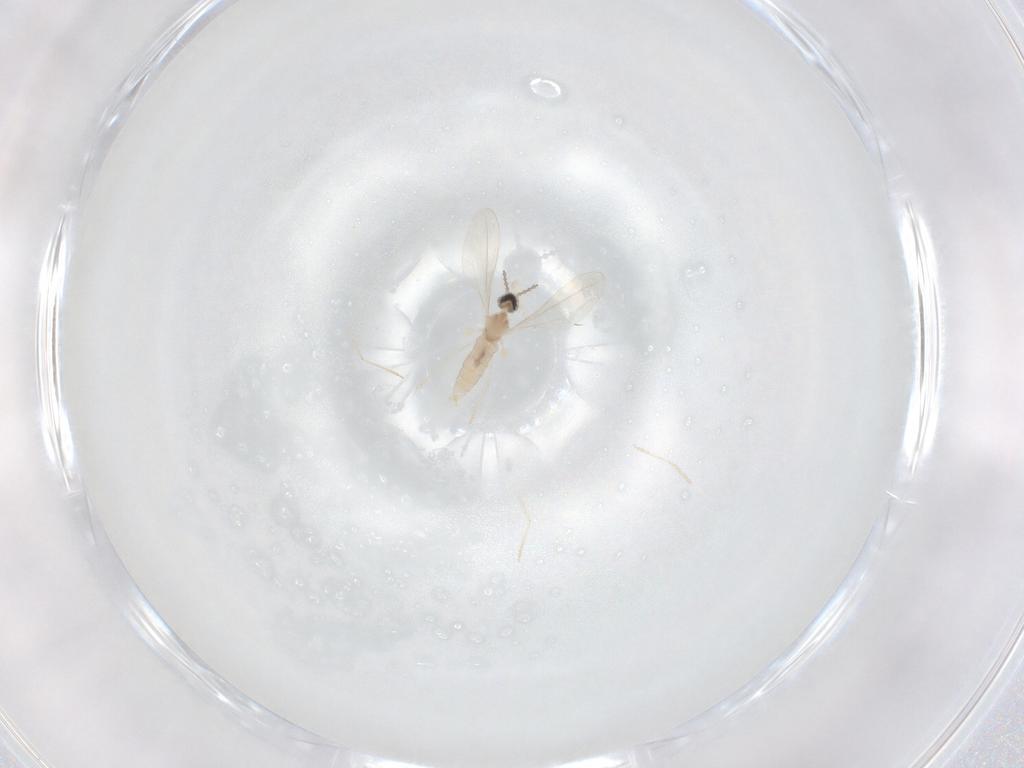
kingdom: Animalia
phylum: Arthropoda
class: Insecta
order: Diptera
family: Cecidomyiidae
